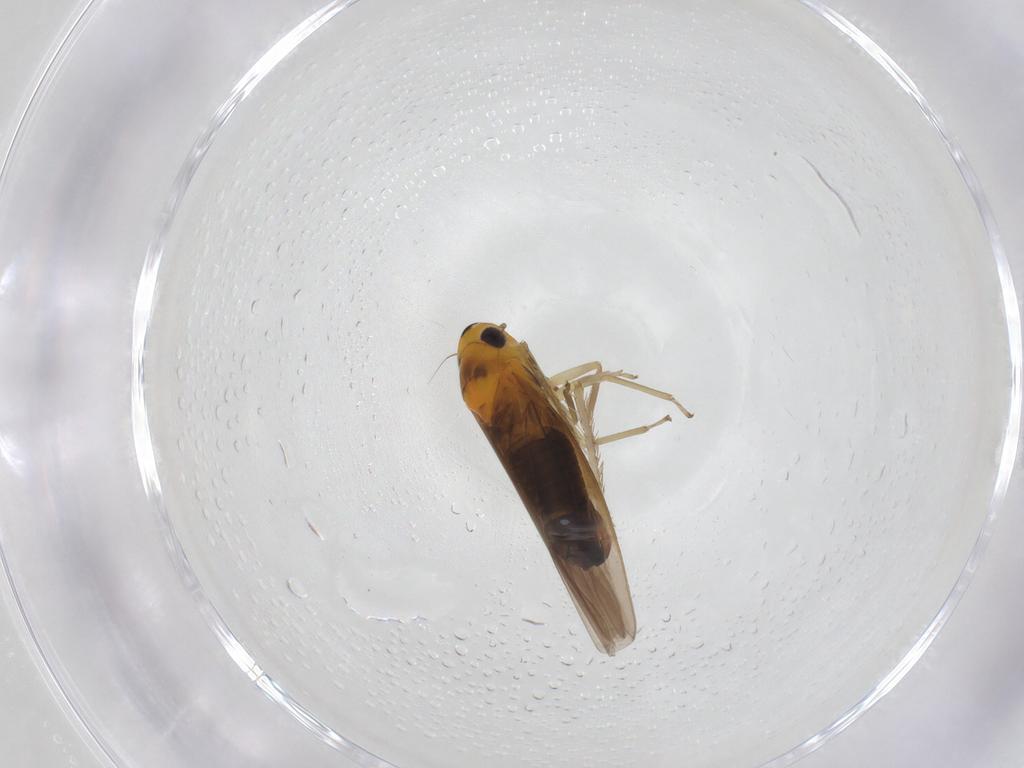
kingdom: Animalia
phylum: Arthropoda
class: Insecta
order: Hemiptera
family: Cicadellidae
